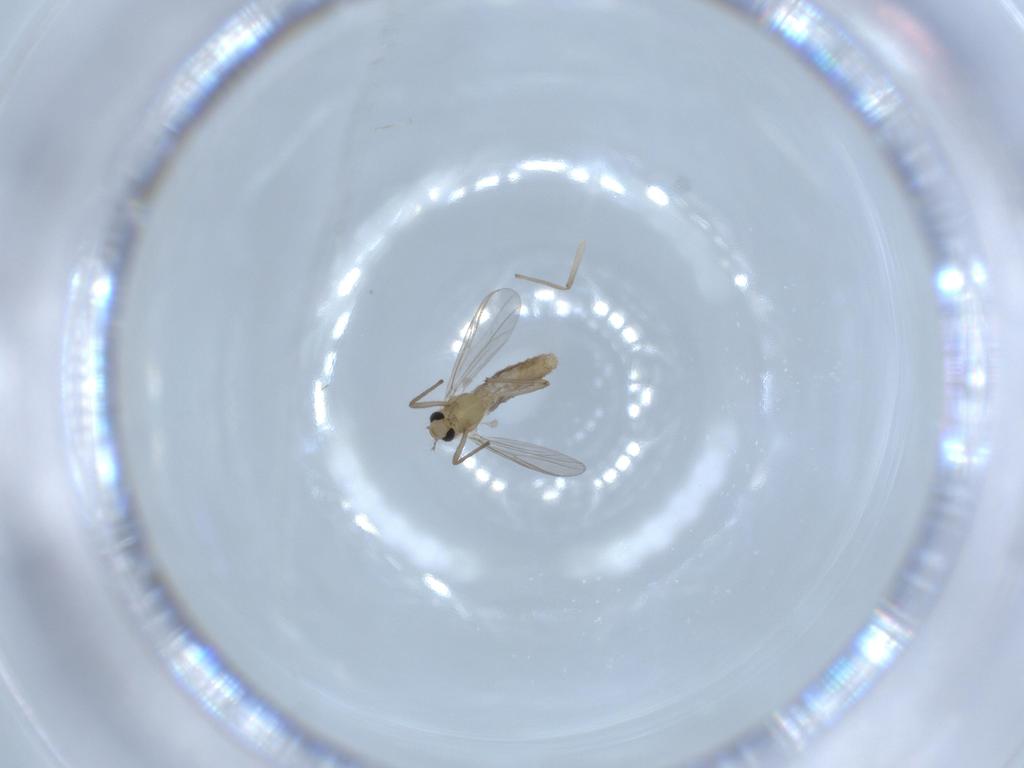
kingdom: Animalia
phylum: Arthropoda
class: Insecta
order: Diptera
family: Chironomidae
